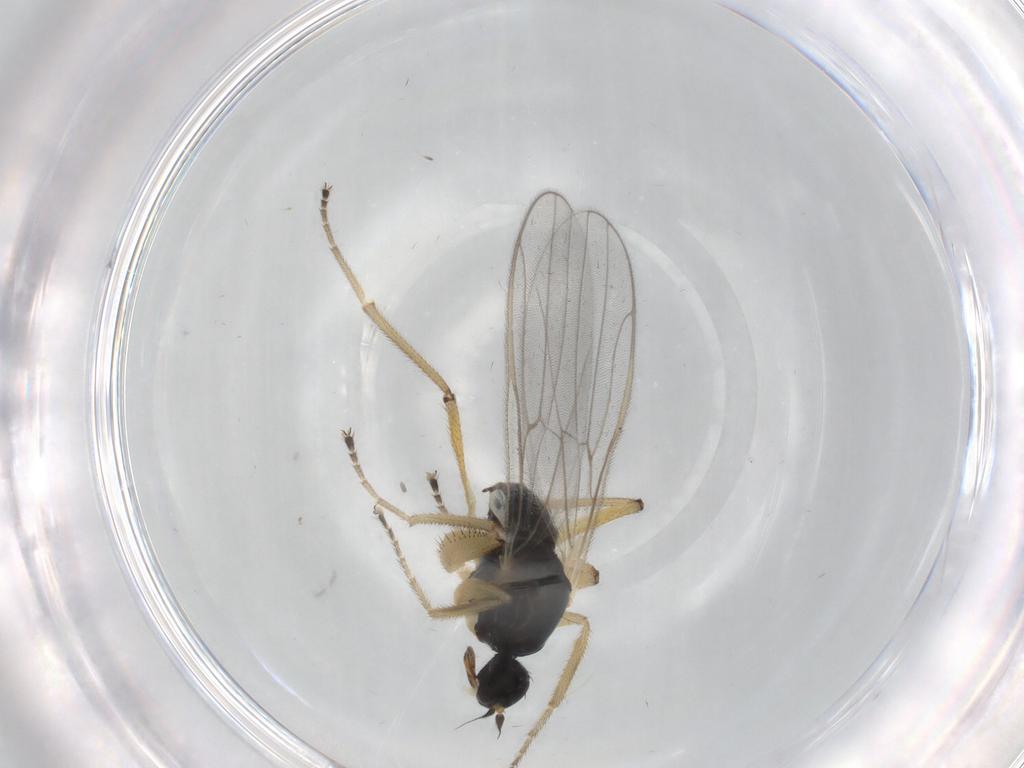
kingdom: Animalia
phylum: Arthropoda
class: Insecta
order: Diptera
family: Hybotidae
